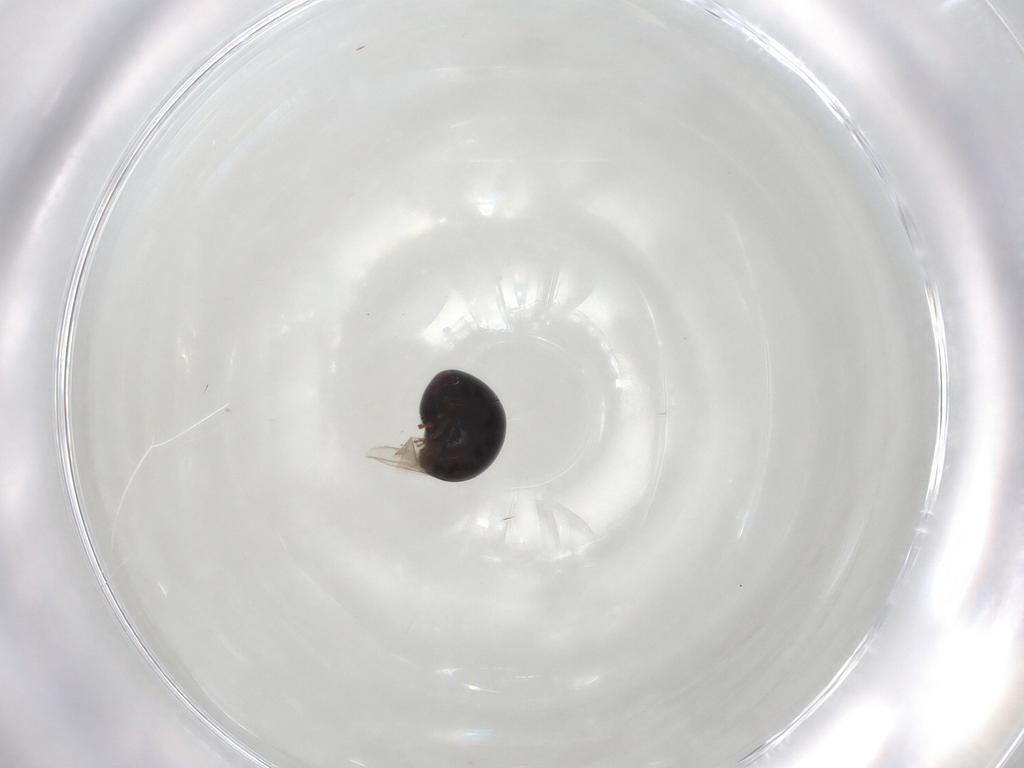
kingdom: Animalia
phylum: Arthropoda
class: Insecta
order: Coleoptera
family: Cybocephalidae
